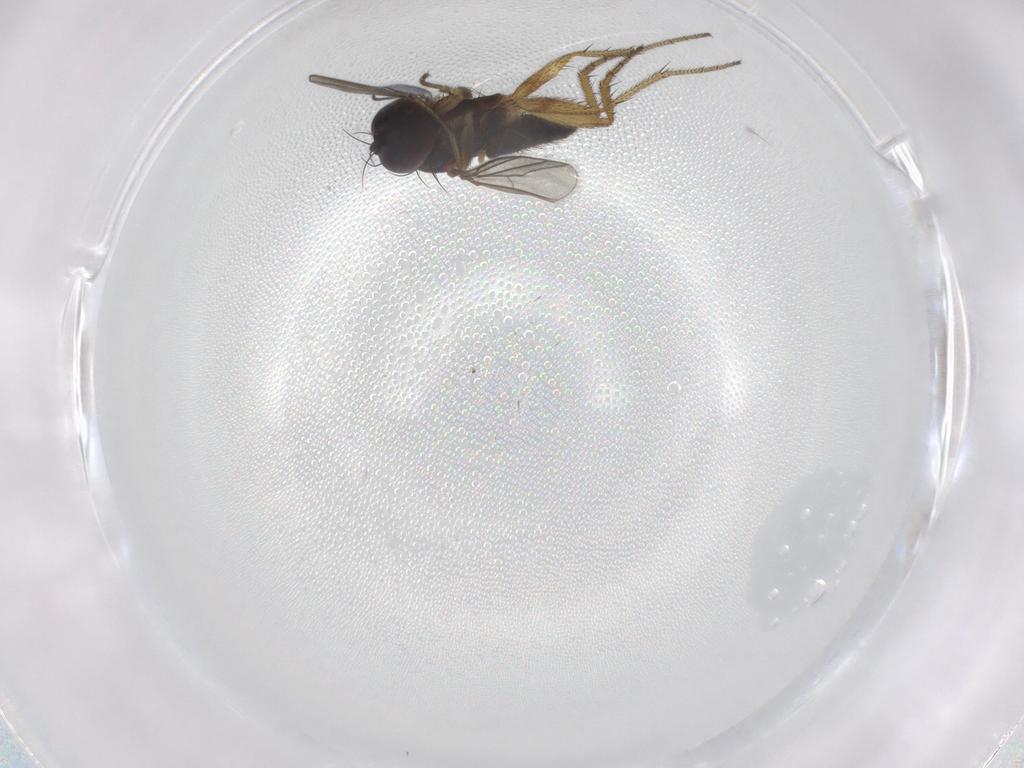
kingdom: Animalia
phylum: Arthropoda
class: Insecta
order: Diptera
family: Sciaridae
